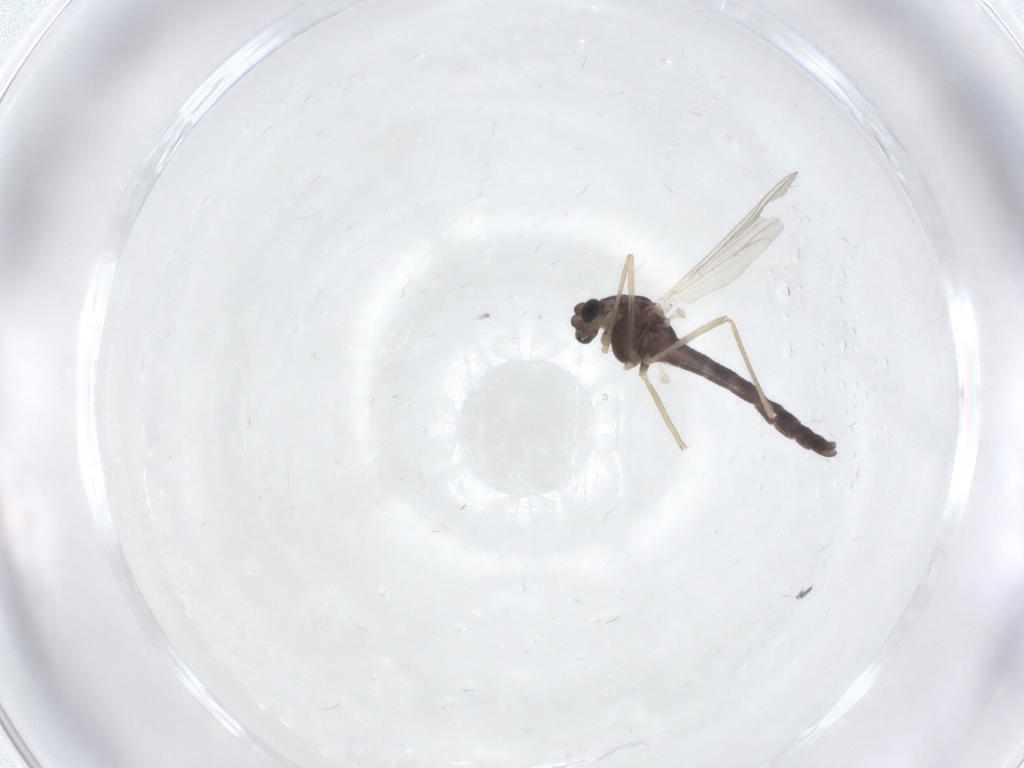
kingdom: Animalia
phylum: Arthropoda
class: Insecta
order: Diptera
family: Chironomidae
